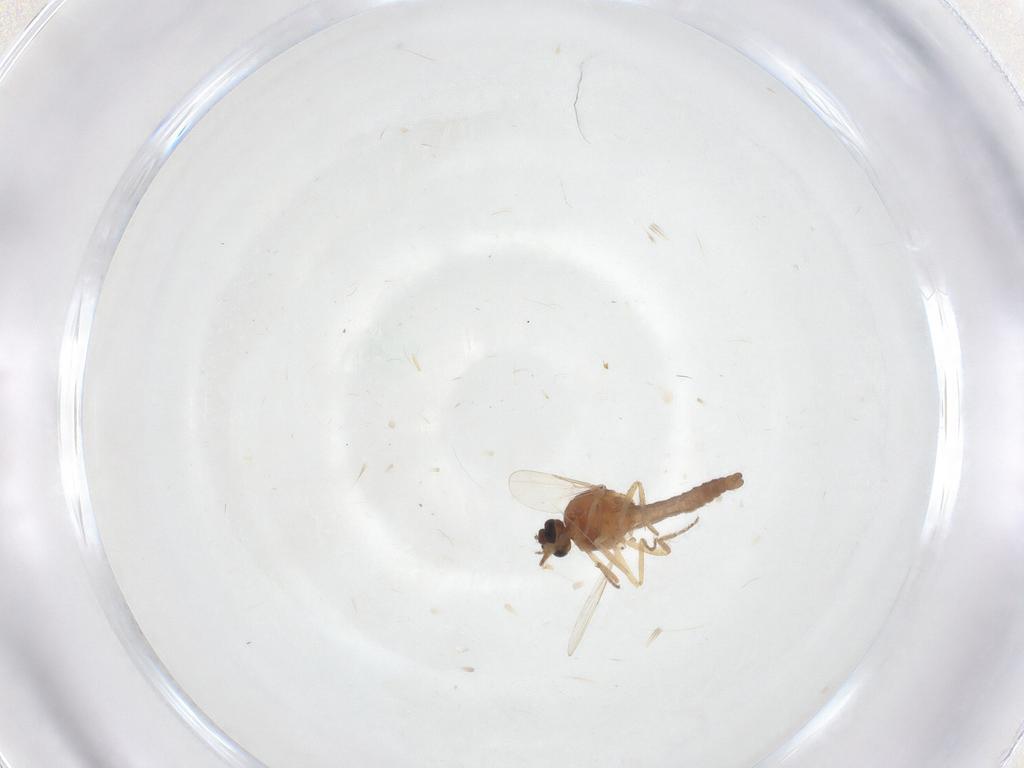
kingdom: Animalia
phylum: Arthropoda
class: Insecta
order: Diptera
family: Ceratopogonidae
